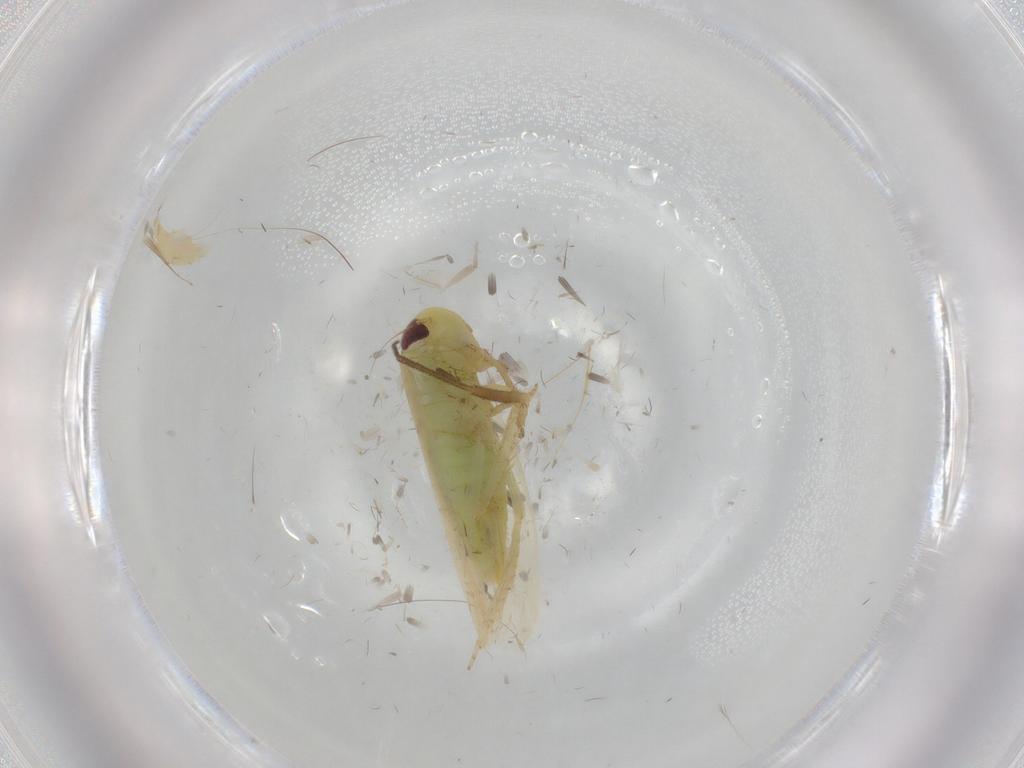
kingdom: Animalia
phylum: Arthropoda
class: Insecta
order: Hemiptera
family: Cicadellidae
